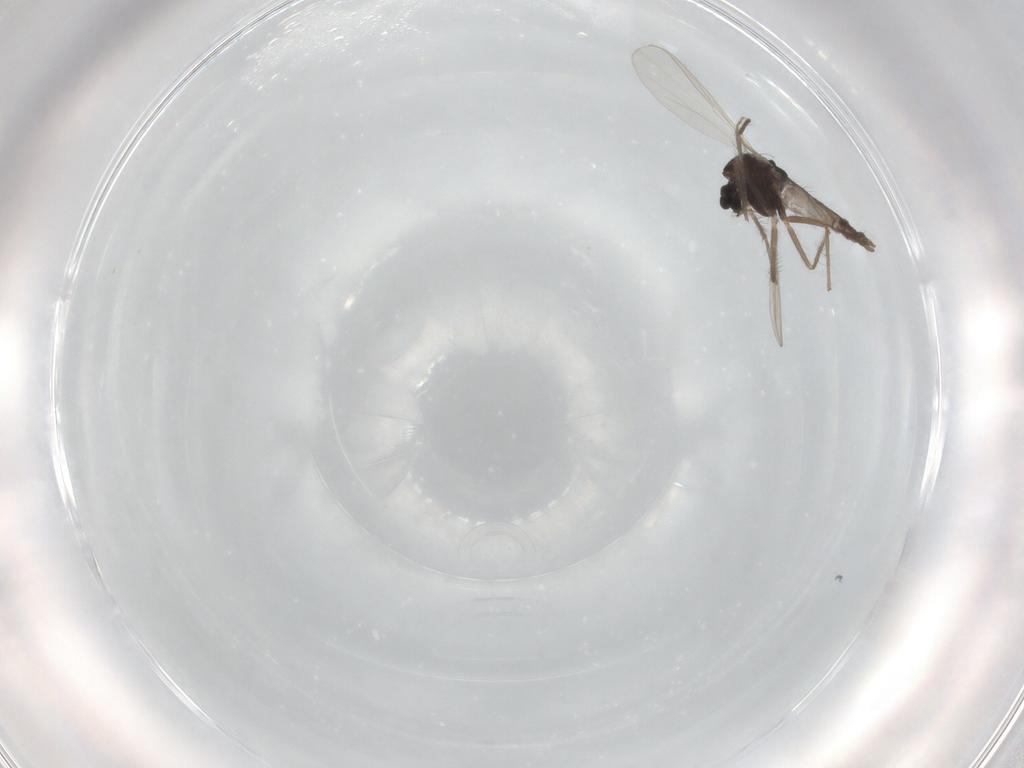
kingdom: Animalia
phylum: Arthropoda
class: Insecta
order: Diptera
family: Chironomidae
